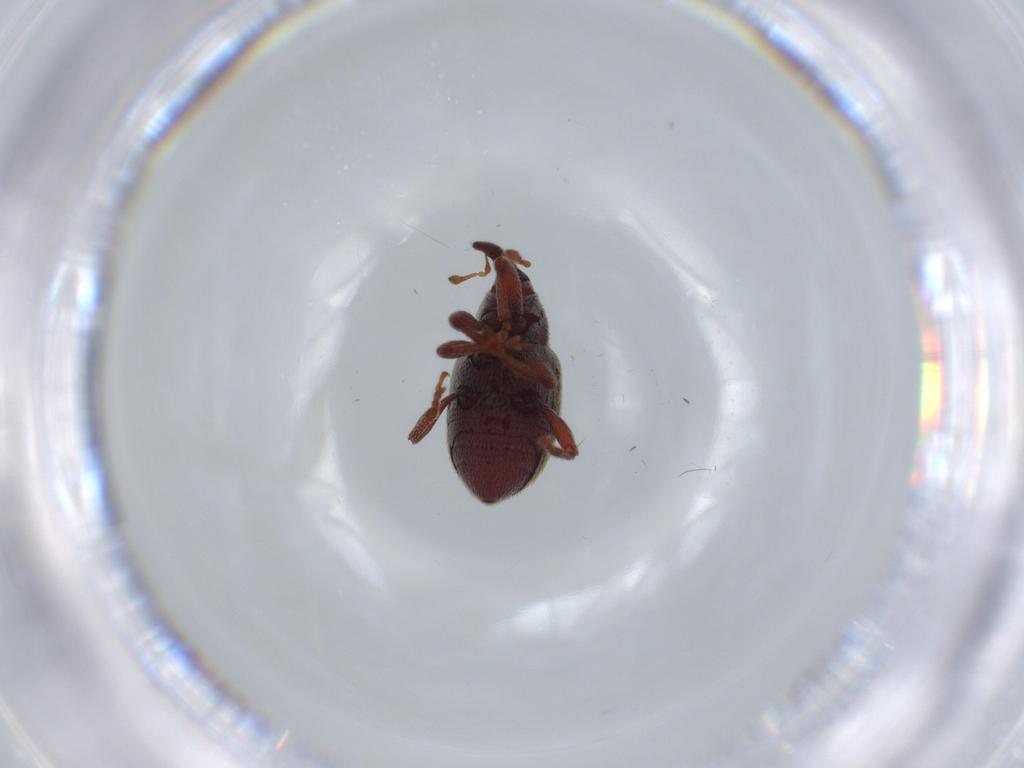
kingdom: Animalia
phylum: Arthropoda
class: Insecta
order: Coleoptera
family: Curculionidae
